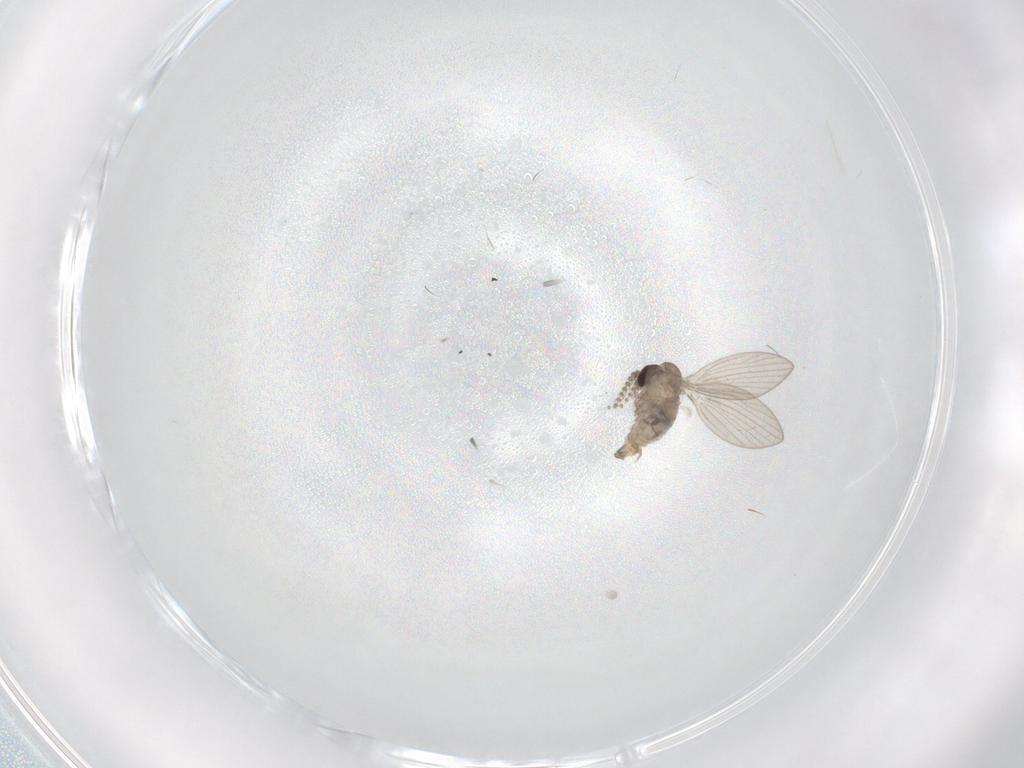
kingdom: Animalia
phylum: Arthropoda
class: Insecta
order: Diptera
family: Psychodidae
